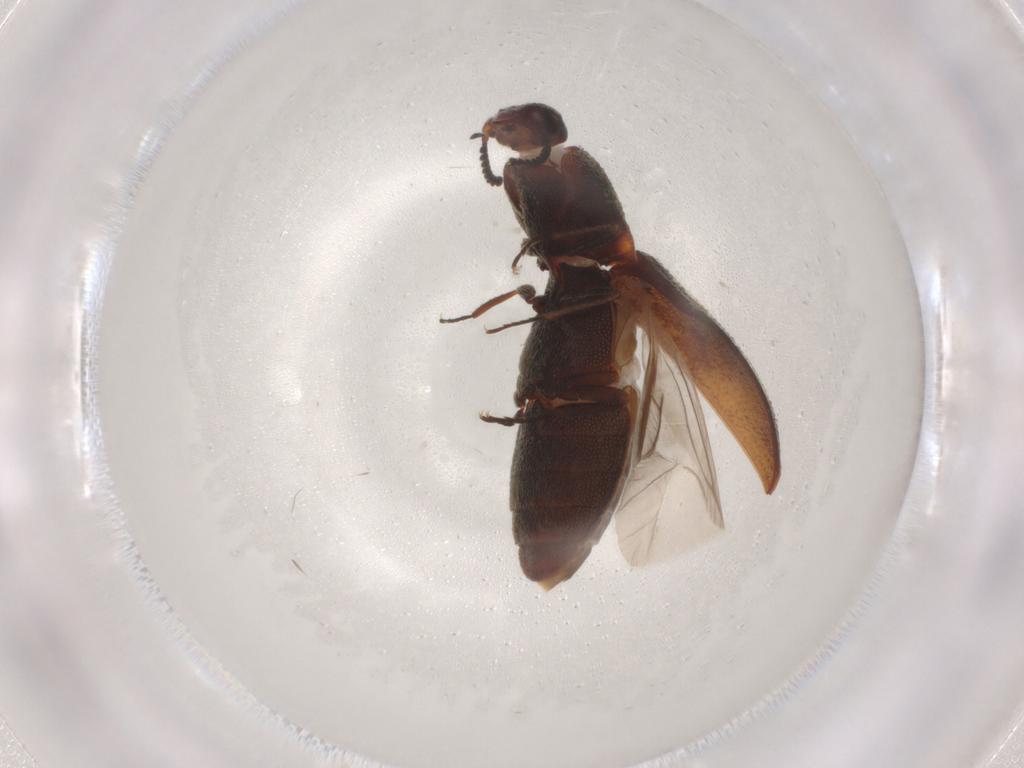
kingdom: Animalia
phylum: Arthropoda
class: Insecta
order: Coleoptera
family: Elateridae
